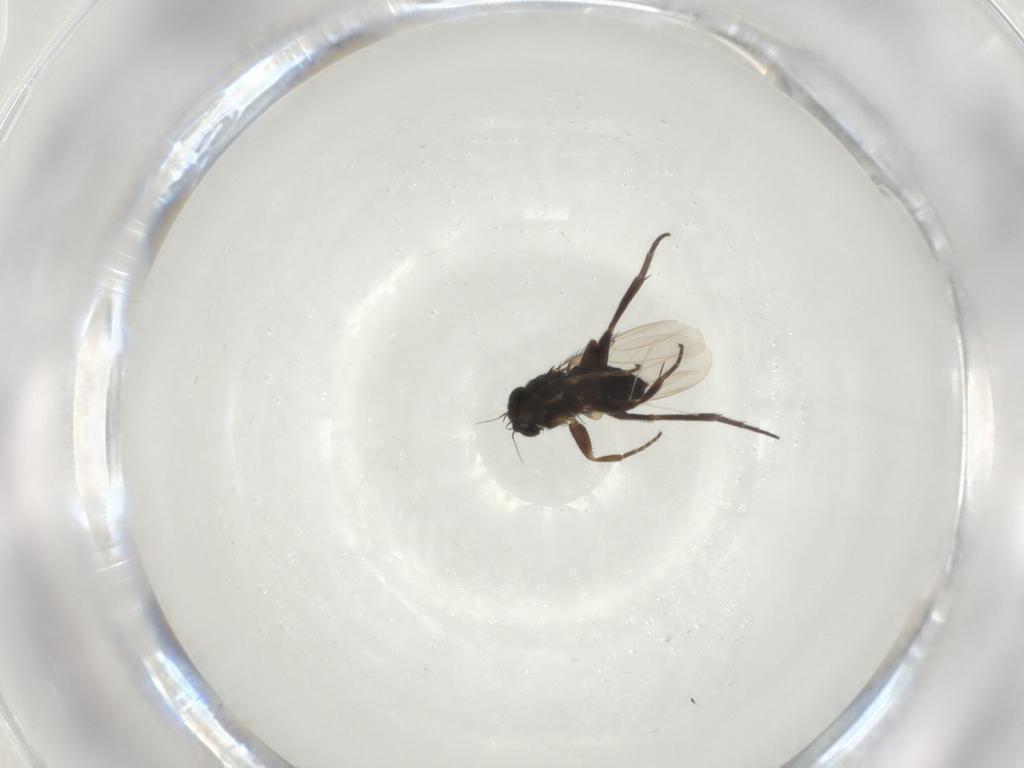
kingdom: Animalia
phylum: Arthropoda
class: Insecta
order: Diptera
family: Phoridae
